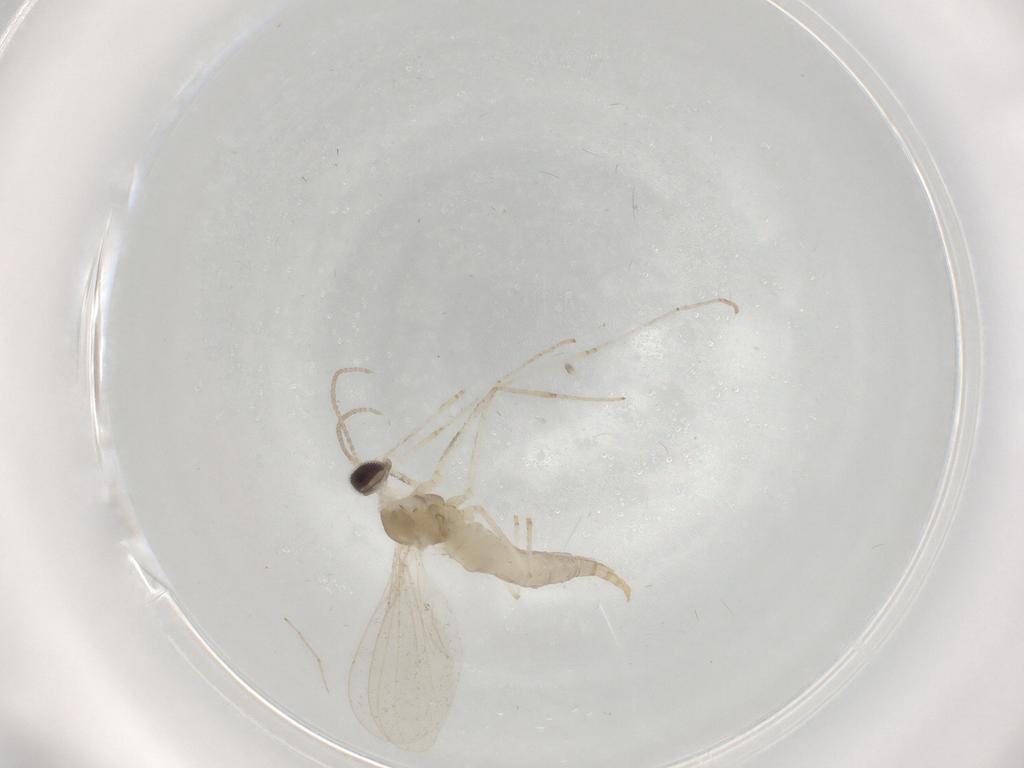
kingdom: Animalia
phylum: Arthropoda
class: Insecta
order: Diptera
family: Cecidomyiidae
